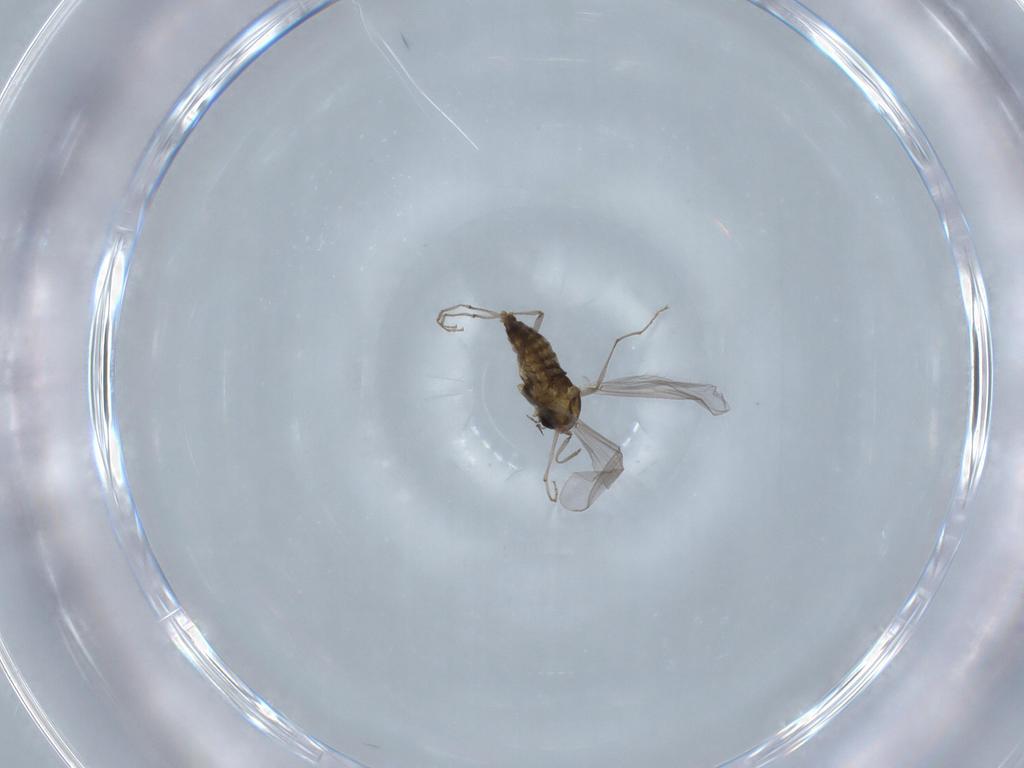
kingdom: Animalia
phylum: Arthropoda
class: Insecta
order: Diptera
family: Chironomidae
